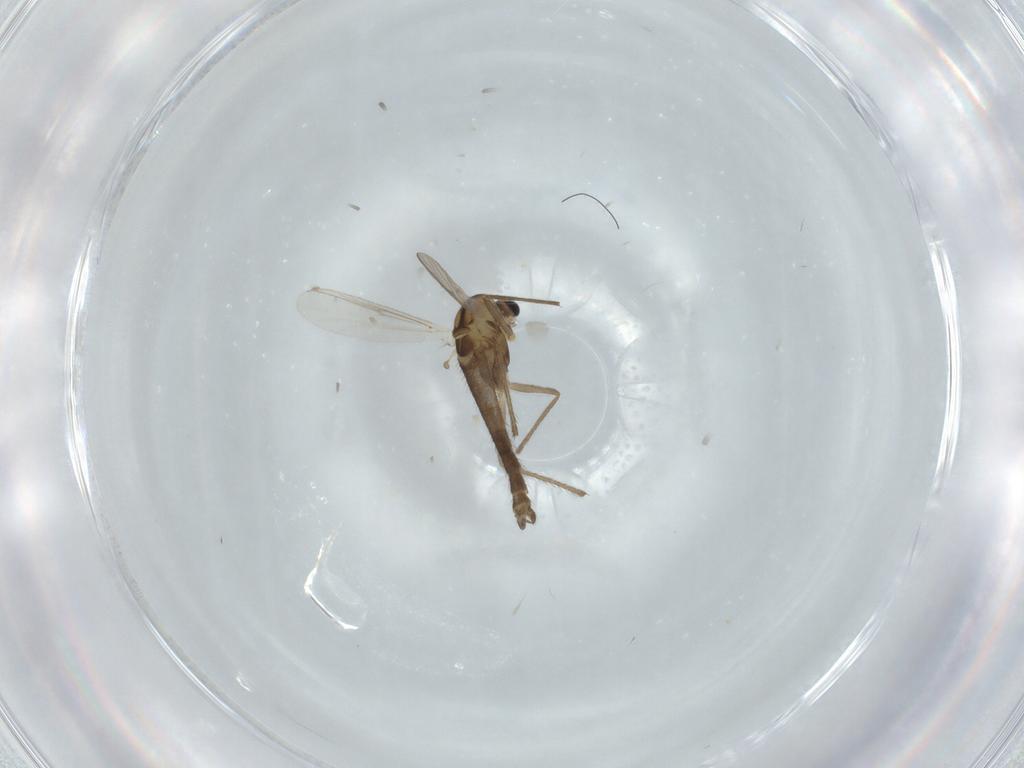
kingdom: Animalia
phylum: Arthropoda
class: Insecta
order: Diptera
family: Chironomidae
